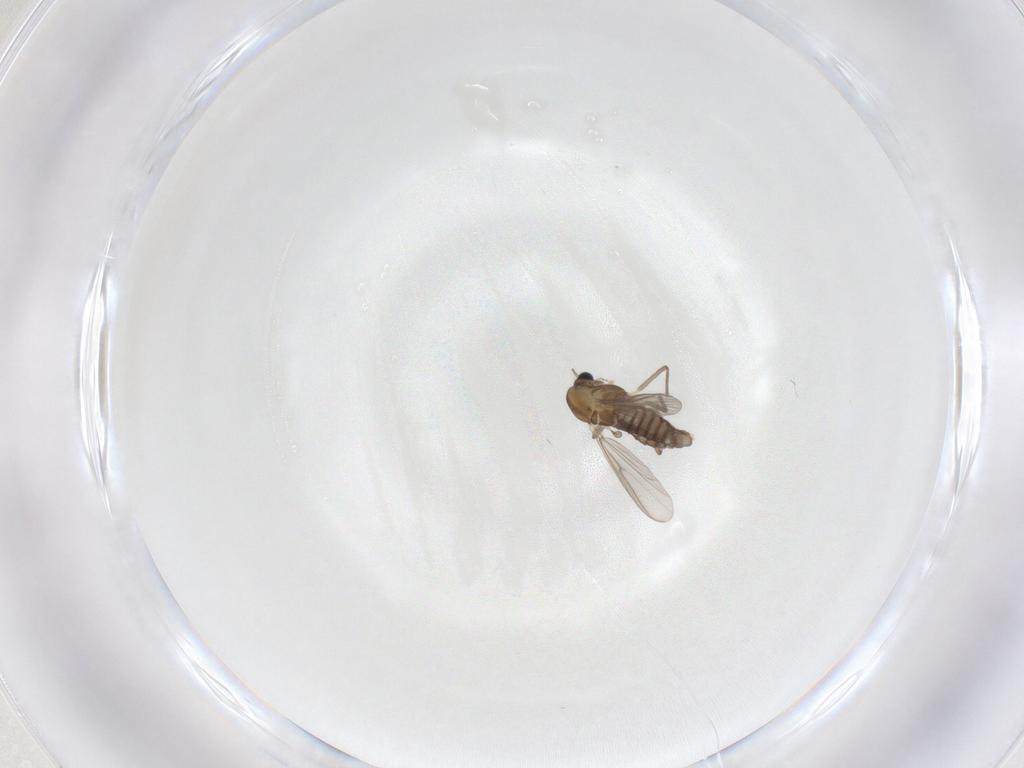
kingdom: Animalia
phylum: Arthropoda
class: Insecta
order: Diptera
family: Chironomidae
